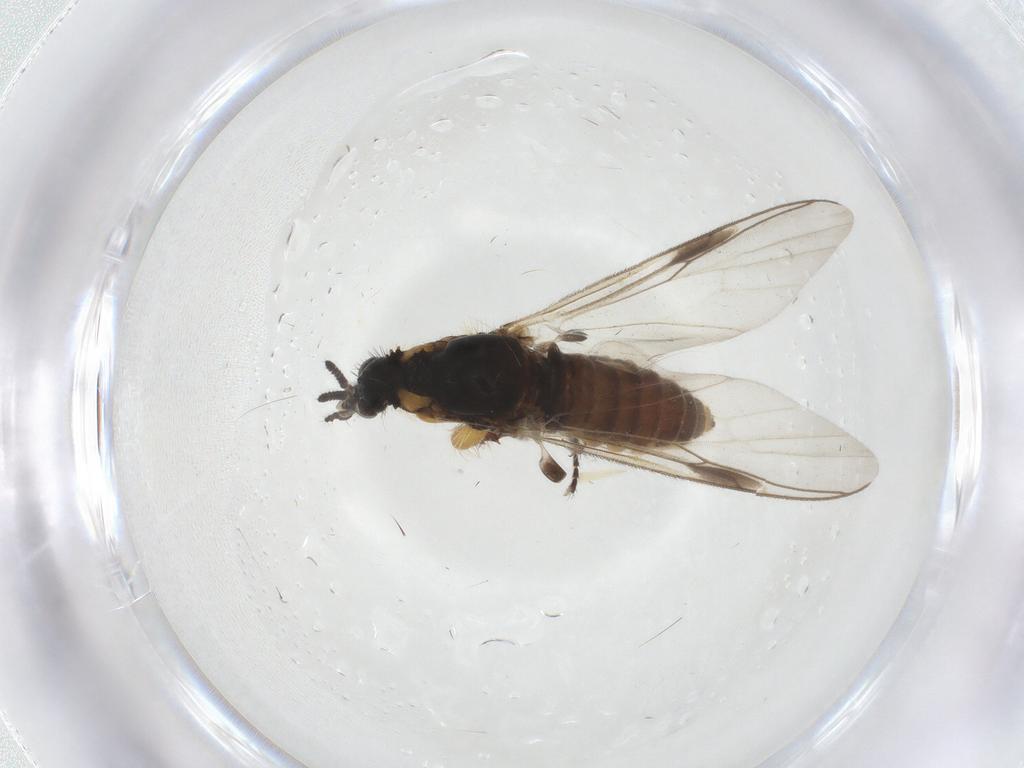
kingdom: Animalia
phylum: Arthropoda
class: Insecta
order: Diptera
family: Bibionidae
